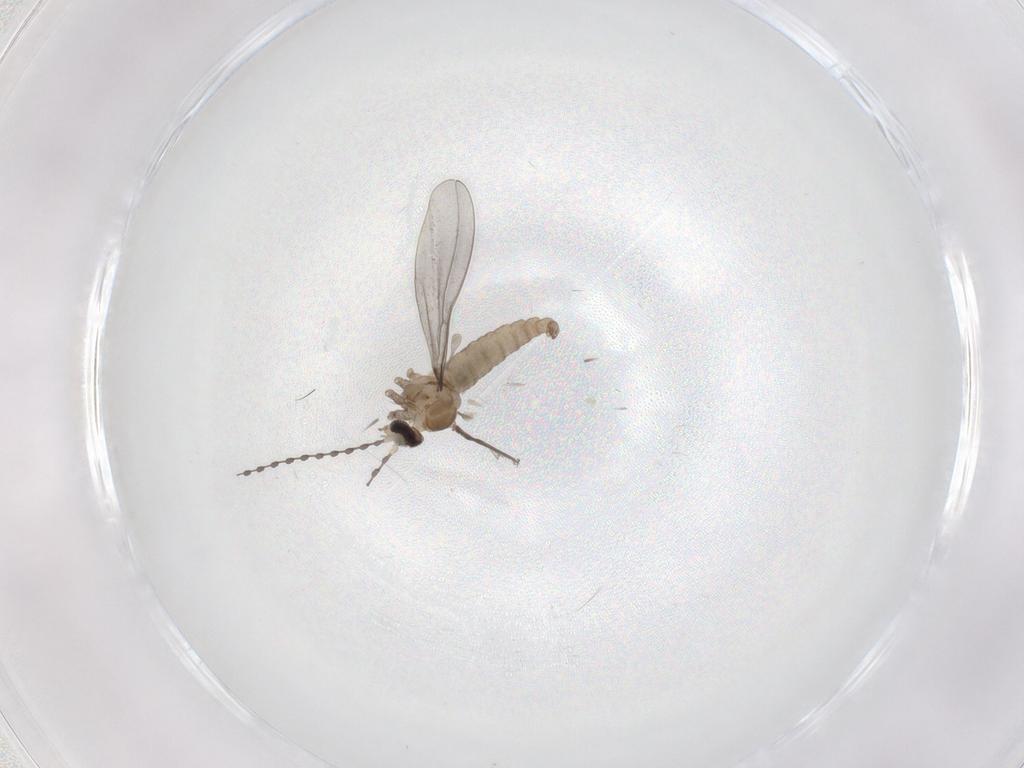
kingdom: Animalia
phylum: Arthropoda
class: Insecta
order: Diptera
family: Cecidomyiidae
